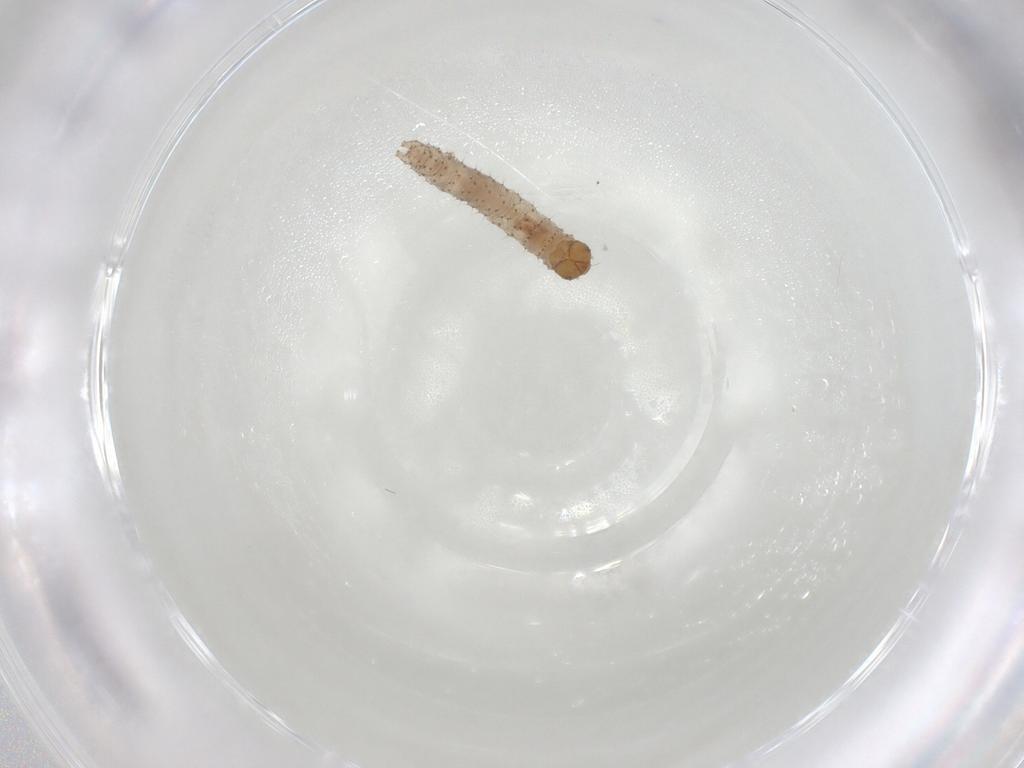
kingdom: Animalia
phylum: Arthropoda
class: Insecta
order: Lepidoptera
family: Noctuidae
